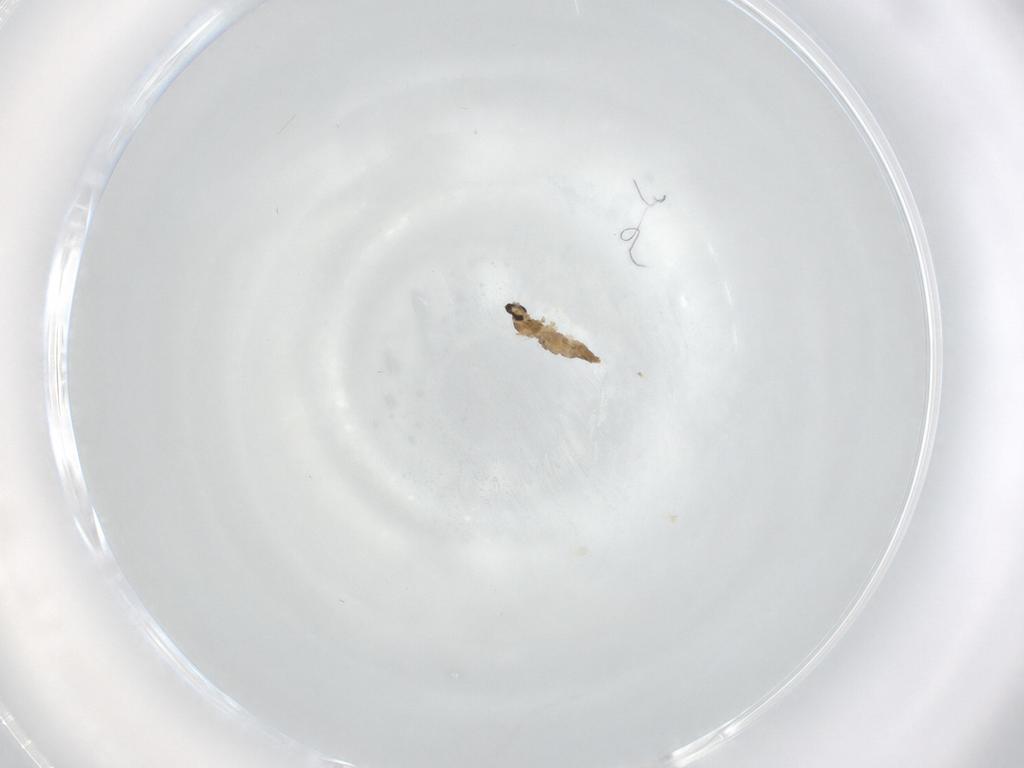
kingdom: Animalia
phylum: Arthropoda
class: Insecta
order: Diptera
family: Cecidomyiidae
